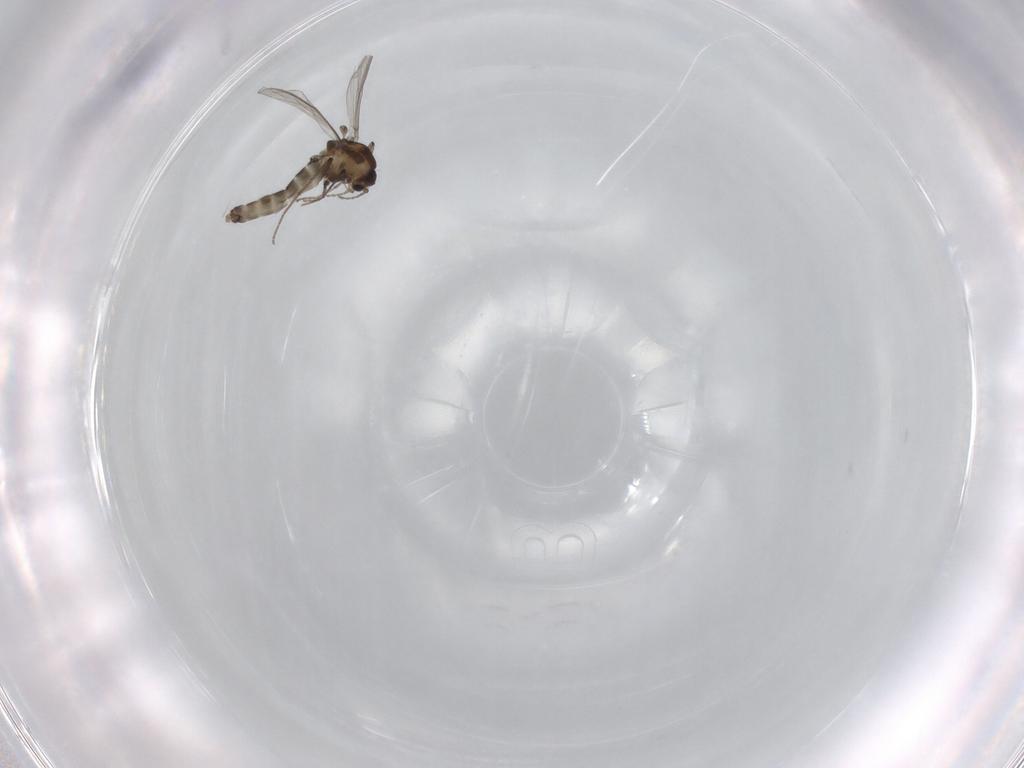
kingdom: Animalia
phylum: Arthropoda
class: Insecta
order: Diptera
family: Chironomidae
